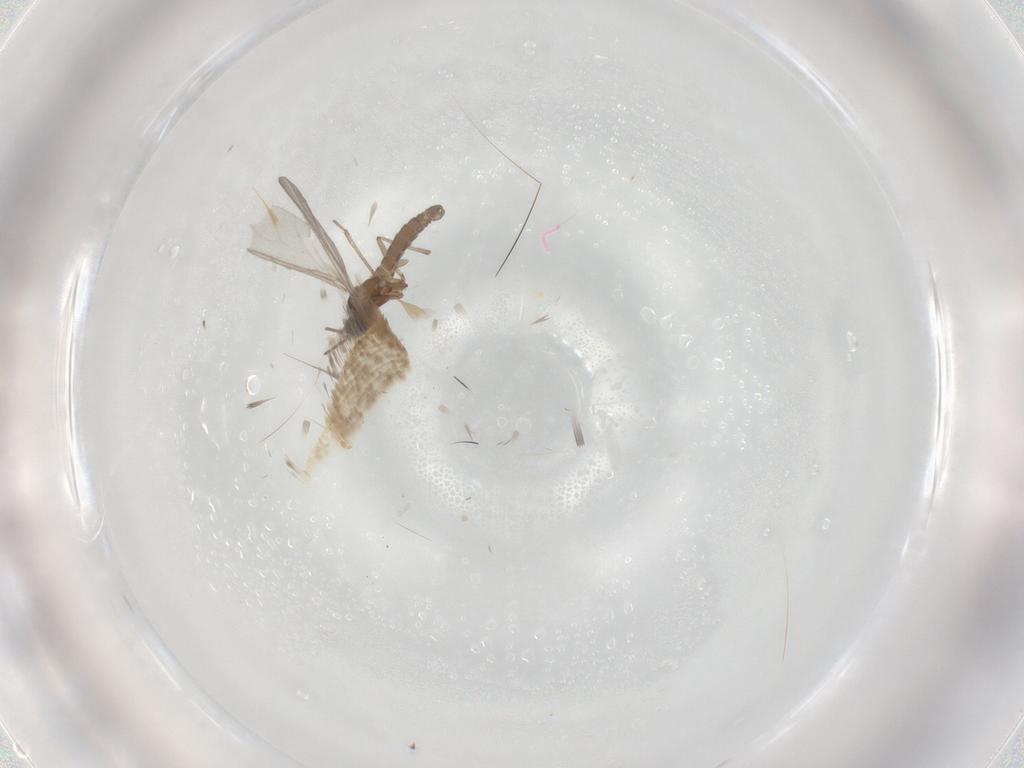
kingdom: Animalia
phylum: Arthropoda
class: Insecta
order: Diptera
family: Sciaridae
